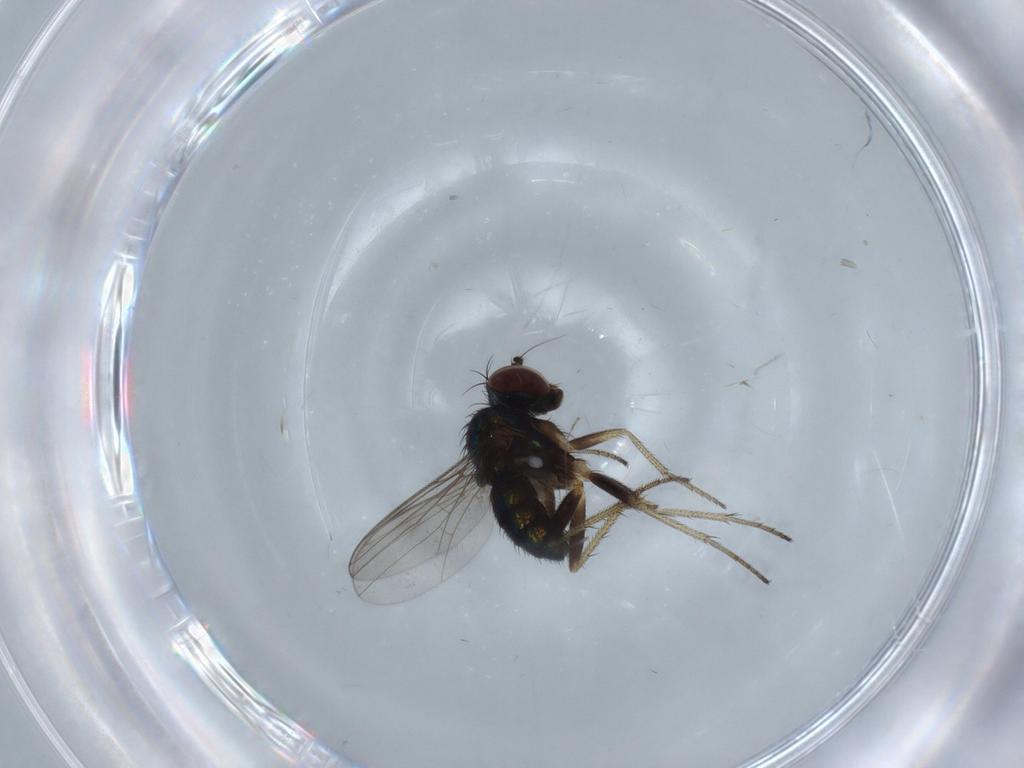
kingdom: Animalia
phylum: Arthropoda
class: Insecta
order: Diptera
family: Dolichopodidae
